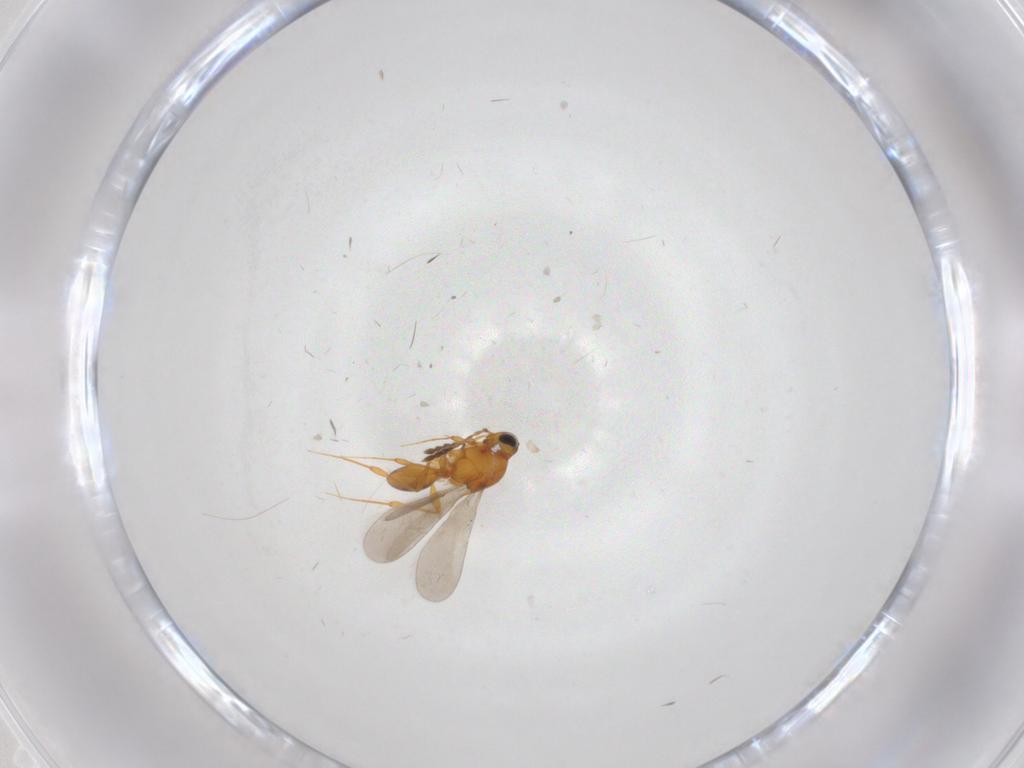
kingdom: Animalia
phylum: Arthropoda
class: Insecta
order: Hymenoptera
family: Platygastridae
